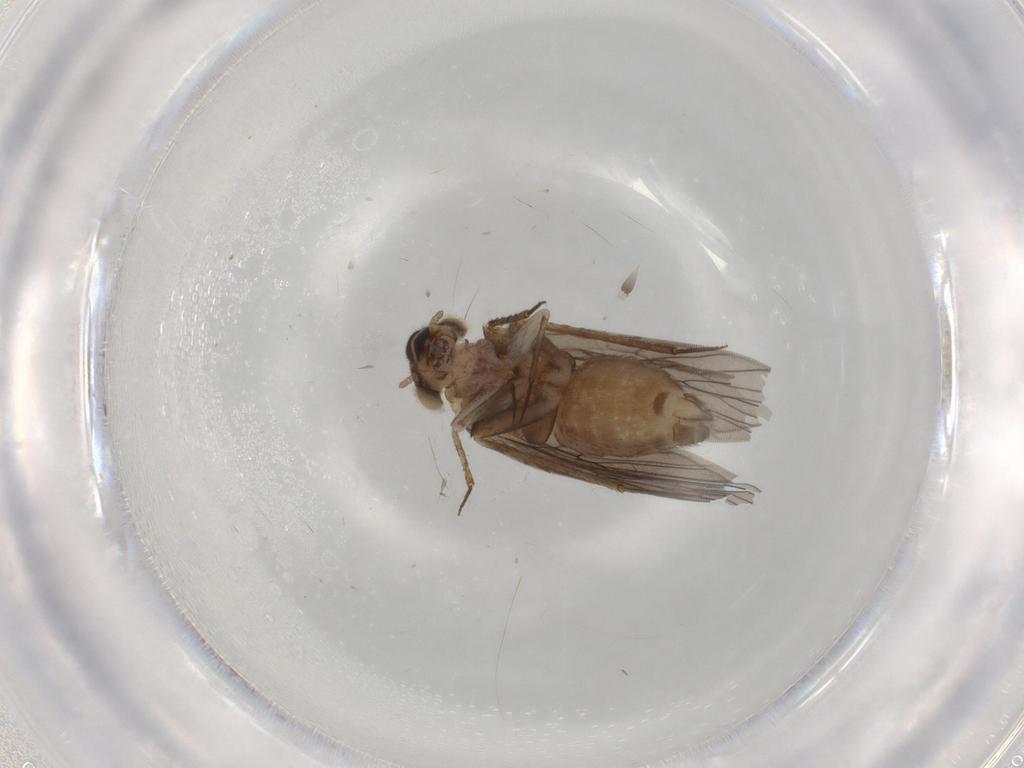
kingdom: Animalia
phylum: Arthropoda
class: Insecta
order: Psocodea
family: Lepidopsocidae
